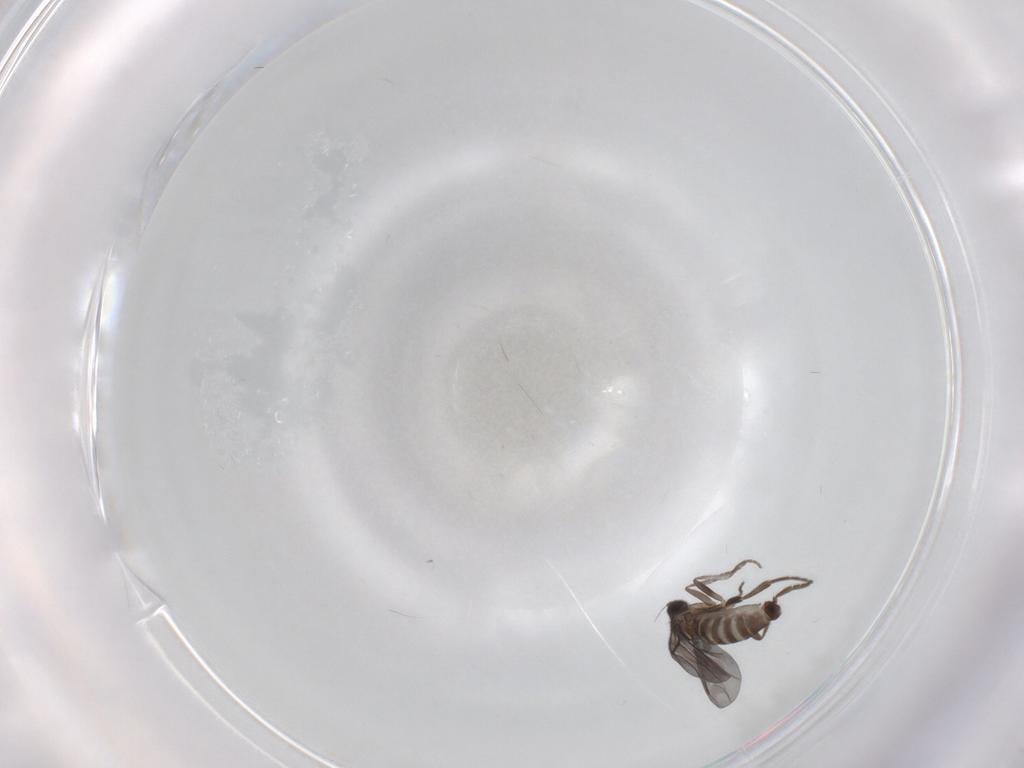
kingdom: Animalia
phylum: Arthropoda
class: Insecta
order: Diptera
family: Phoridae
